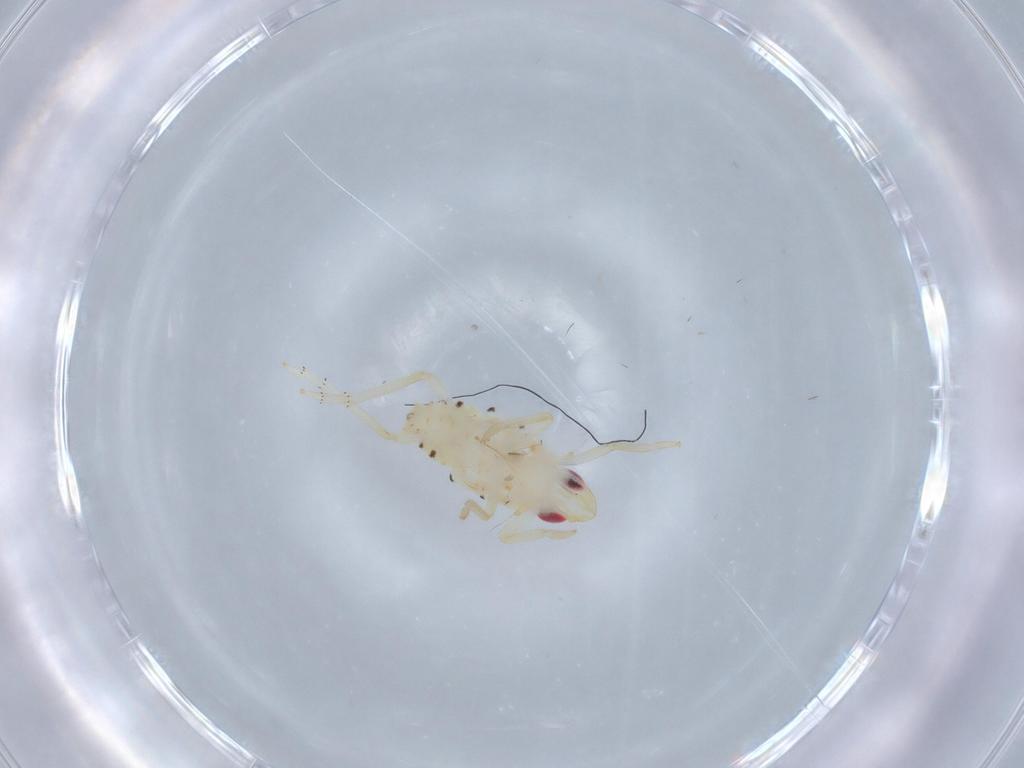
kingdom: Animalia
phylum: Arthropoda
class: Insecta
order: Hemiptera
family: Tropiduchidae
